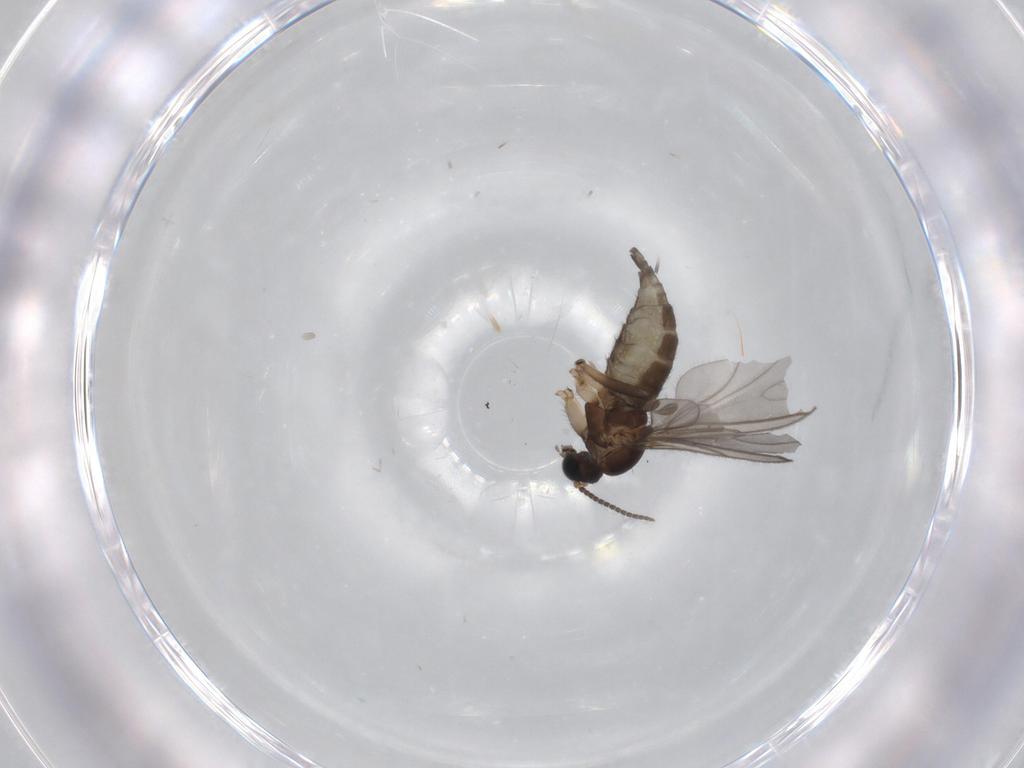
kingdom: Animalia
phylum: Arthropoda
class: Insecta
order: Diptera
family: Sciaridae
